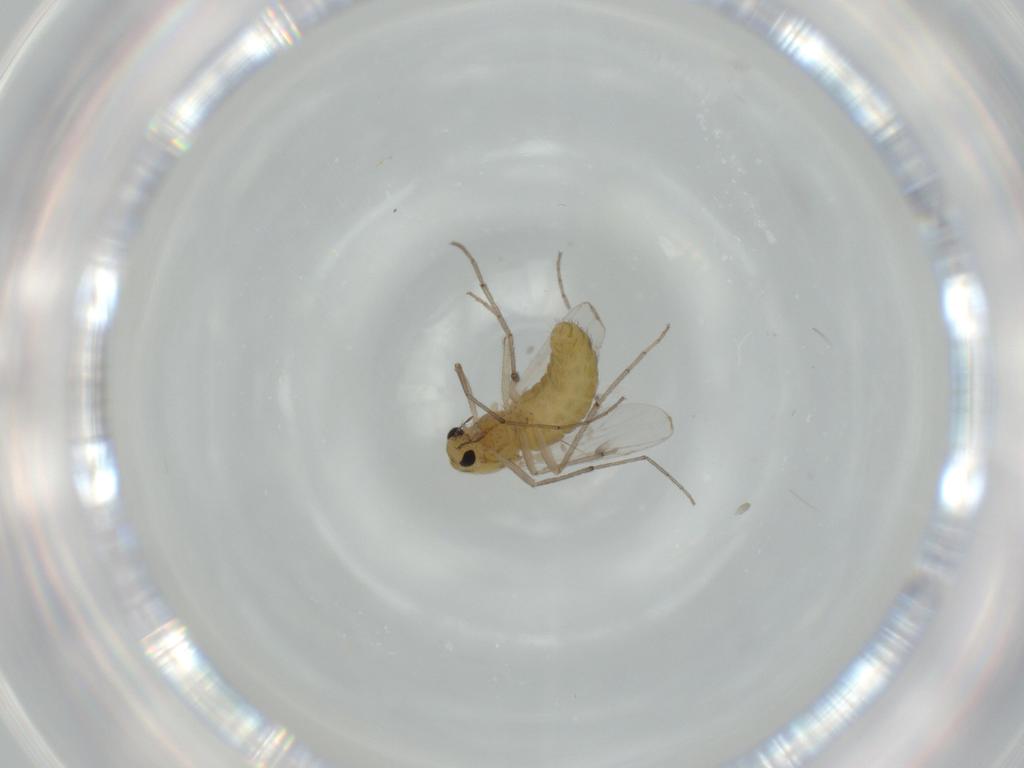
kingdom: Animalia
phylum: Arthropoda
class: Insecta
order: Diptera
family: Chironomidae
